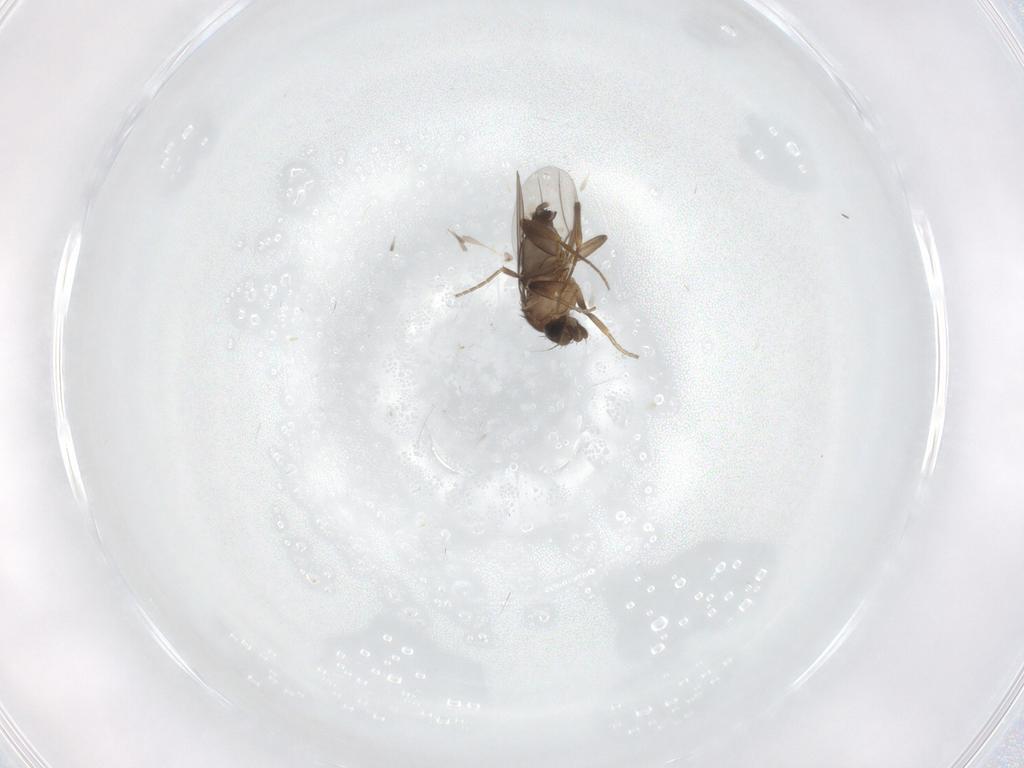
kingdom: Animalia
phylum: Arthropoda
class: Insecta
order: Diptera
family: Phoridae
